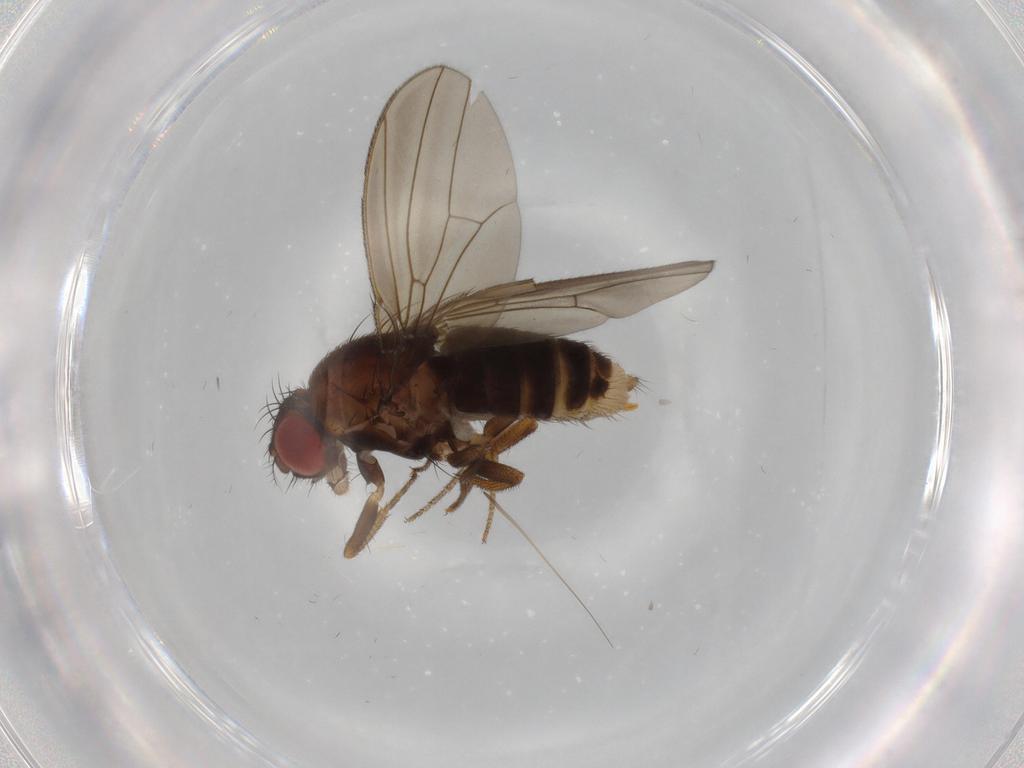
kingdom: Animalia
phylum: Arthropoda
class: Insecta
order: Diptera
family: Drosophilidae
